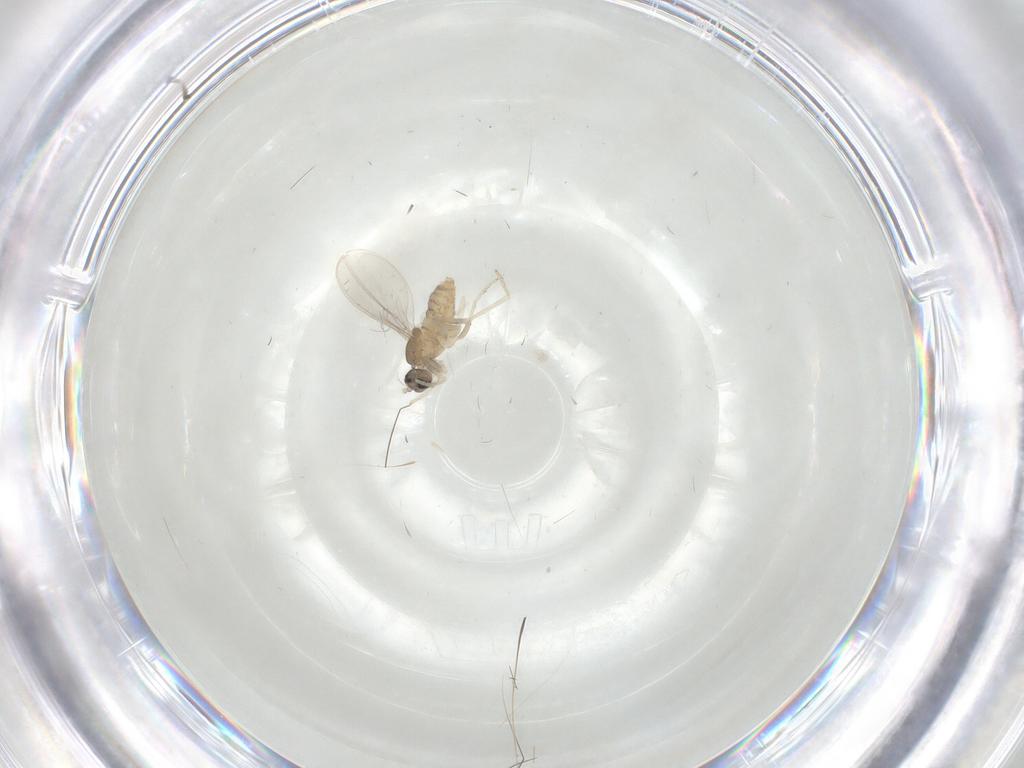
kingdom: Animalia
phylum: Arthropoda
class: Insecta
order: Diptera
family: Cecidomyiidae
